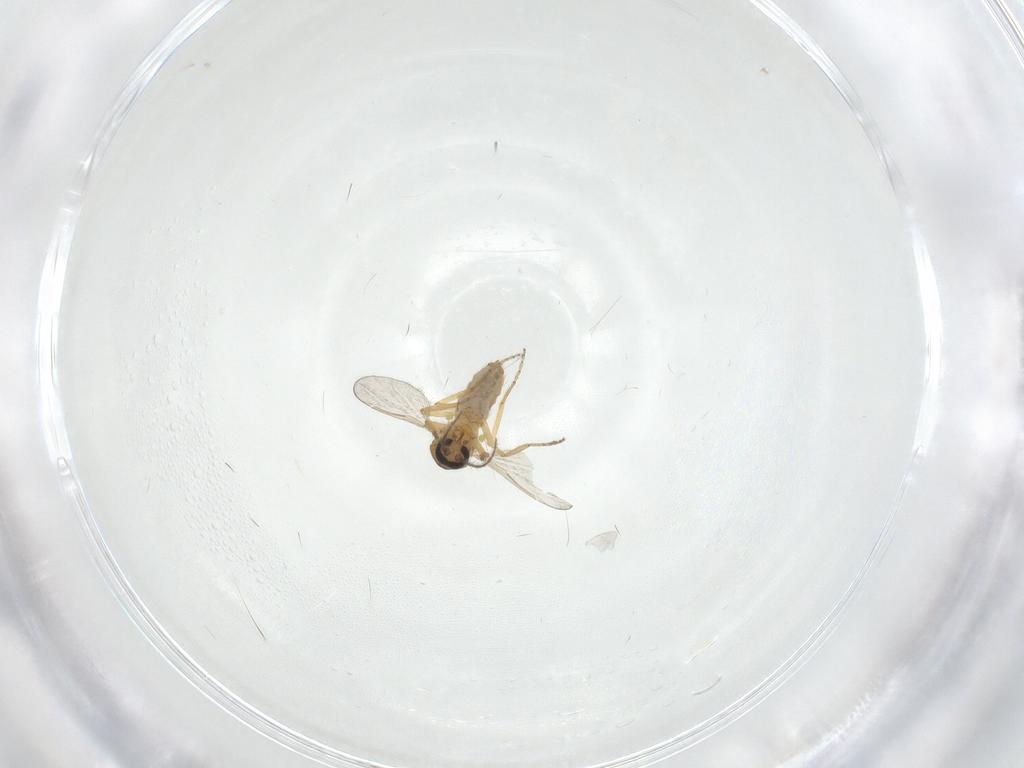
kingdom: Animalia
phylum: Arthropoda
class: Insecta
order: Diptera
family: Ceratopogonidae
